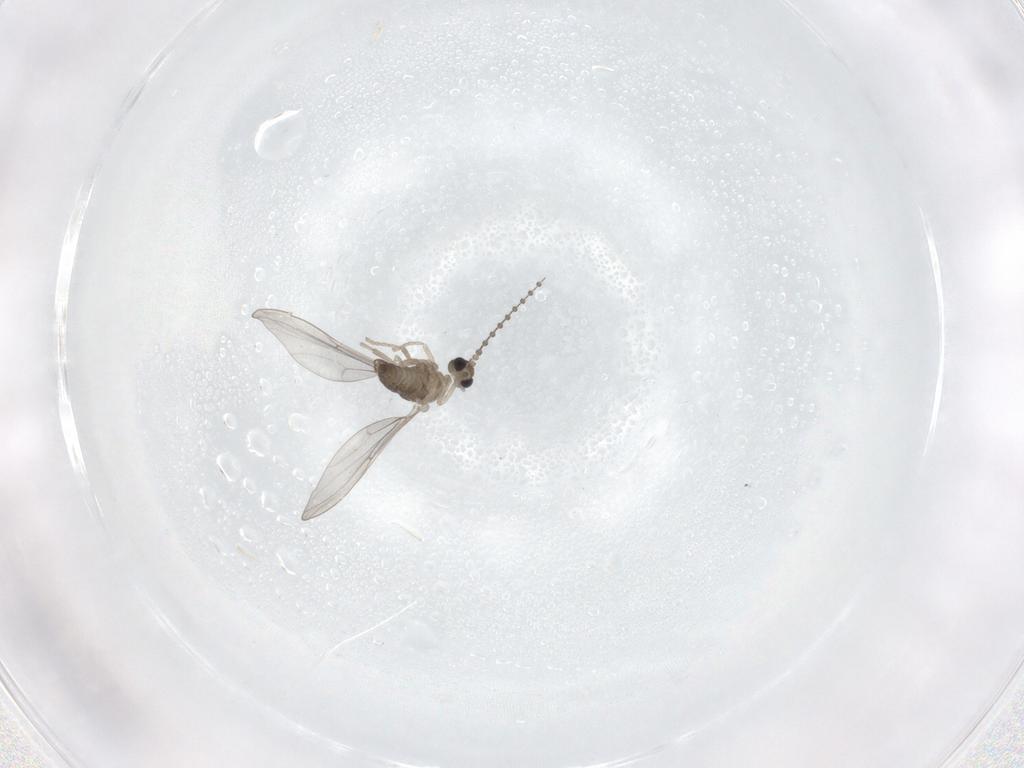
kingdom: Animalia
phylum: Arthropoda
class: Insecta
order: Diptera
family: Cecidomyiidae
